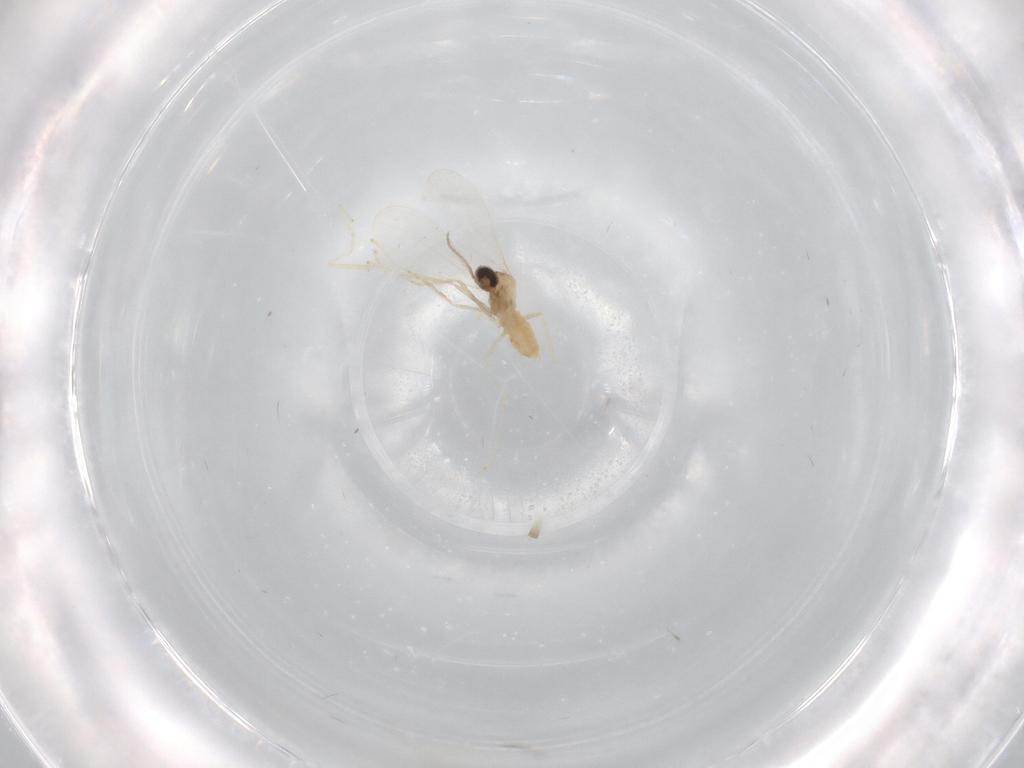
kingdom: Animalia
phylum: Arthropoda
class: Insecta
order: Diptera
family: Cecidomyiidae
